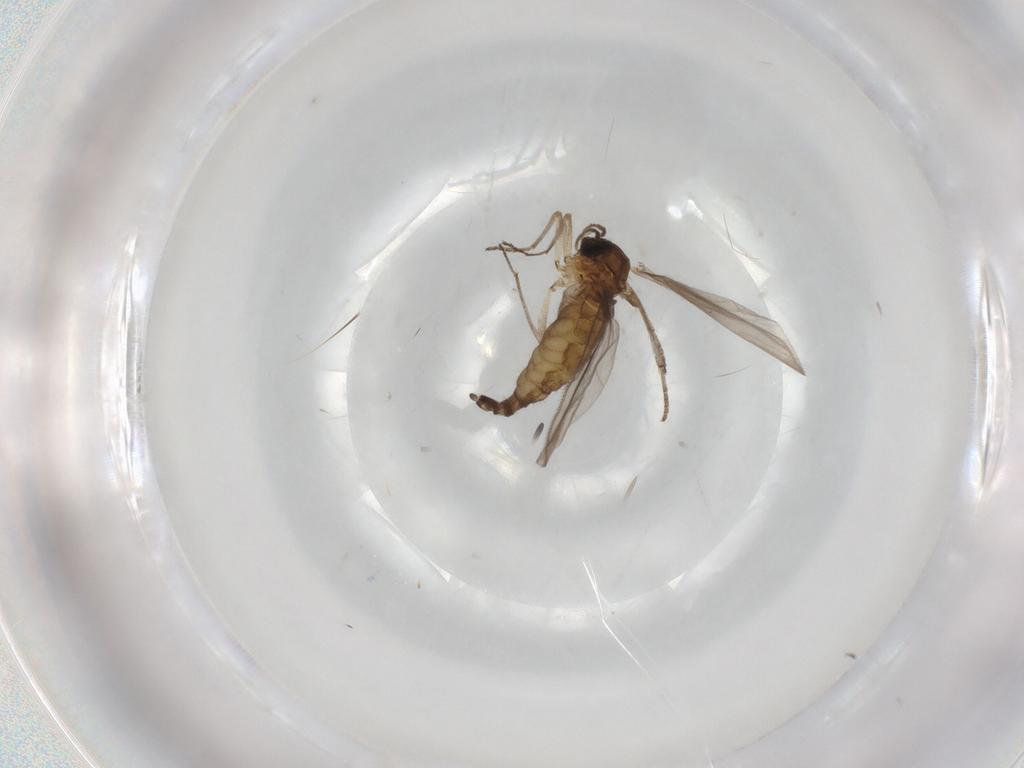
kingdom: Animalia
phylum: Arthropoda
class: Insecta
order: Diptera
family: Sciaridae
